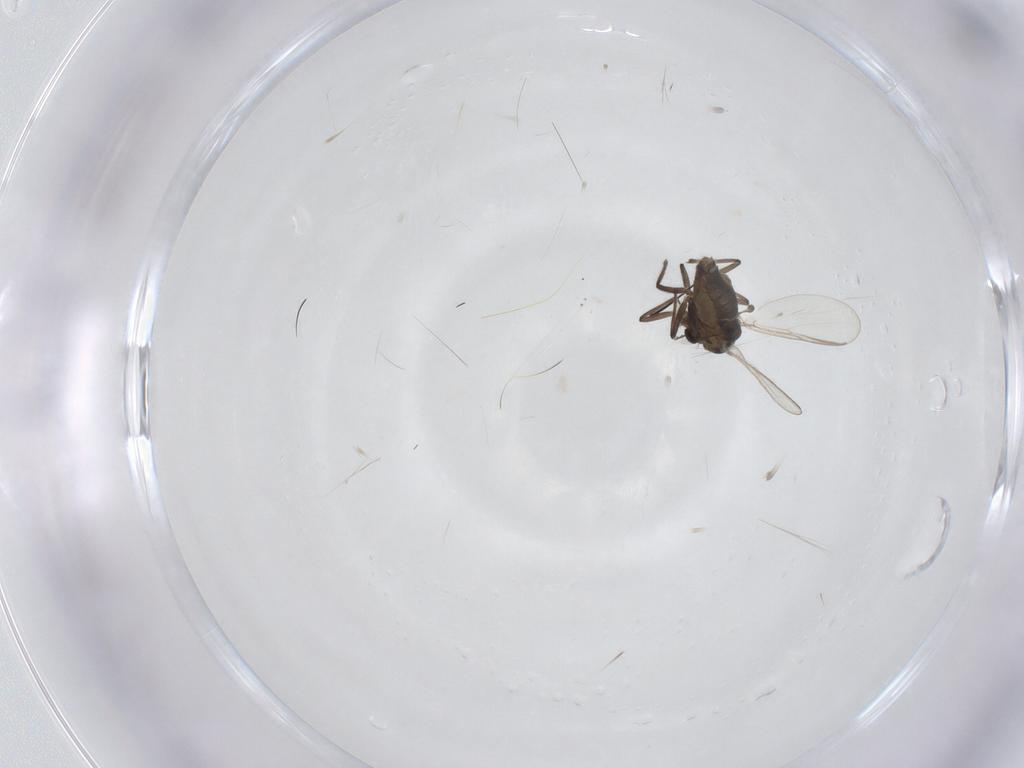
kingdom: Animalia
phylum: Arthropoda
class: Insecta
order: Diptera
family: Chironomidae
